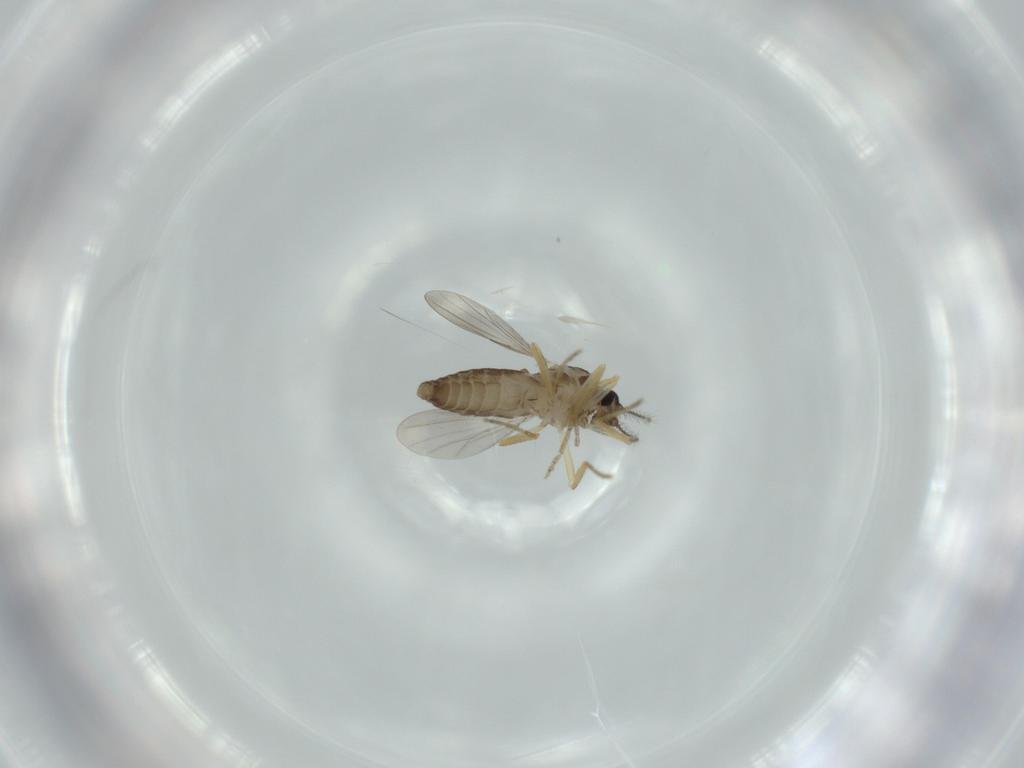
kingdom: Animalia
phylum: Arthropoda
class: Insecta
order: Diptera
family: Ceratopogonidae
